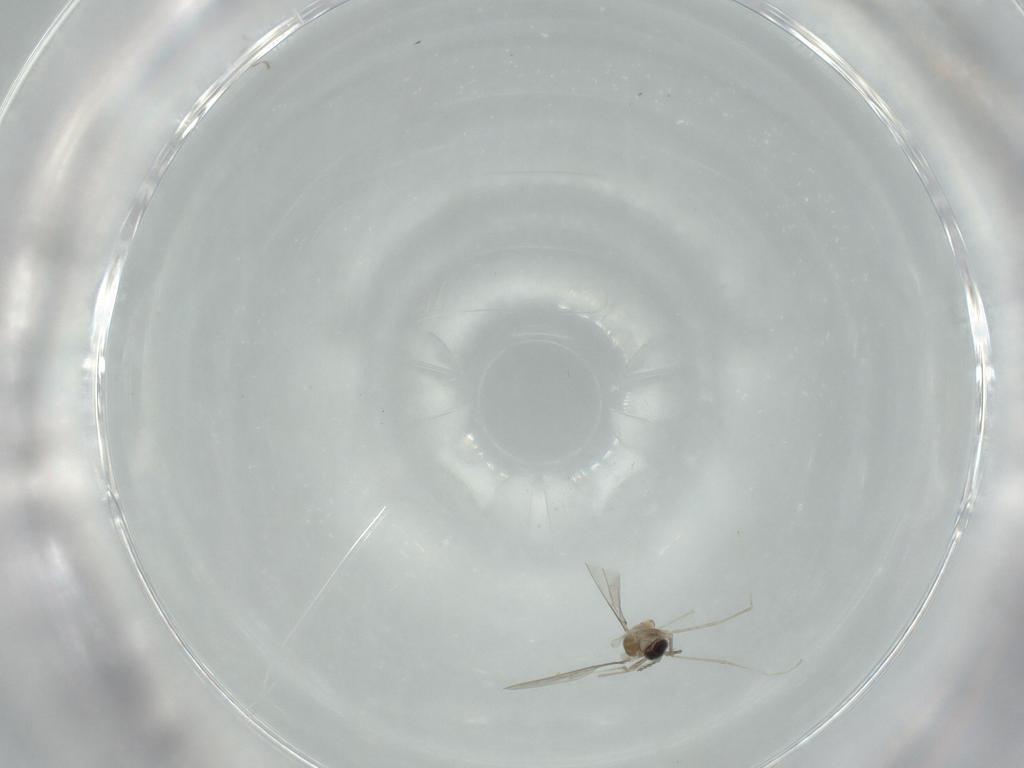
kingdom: Animalia
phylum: Arthropoda
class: Insecta
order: Diptera
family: Cecidomyiidae
